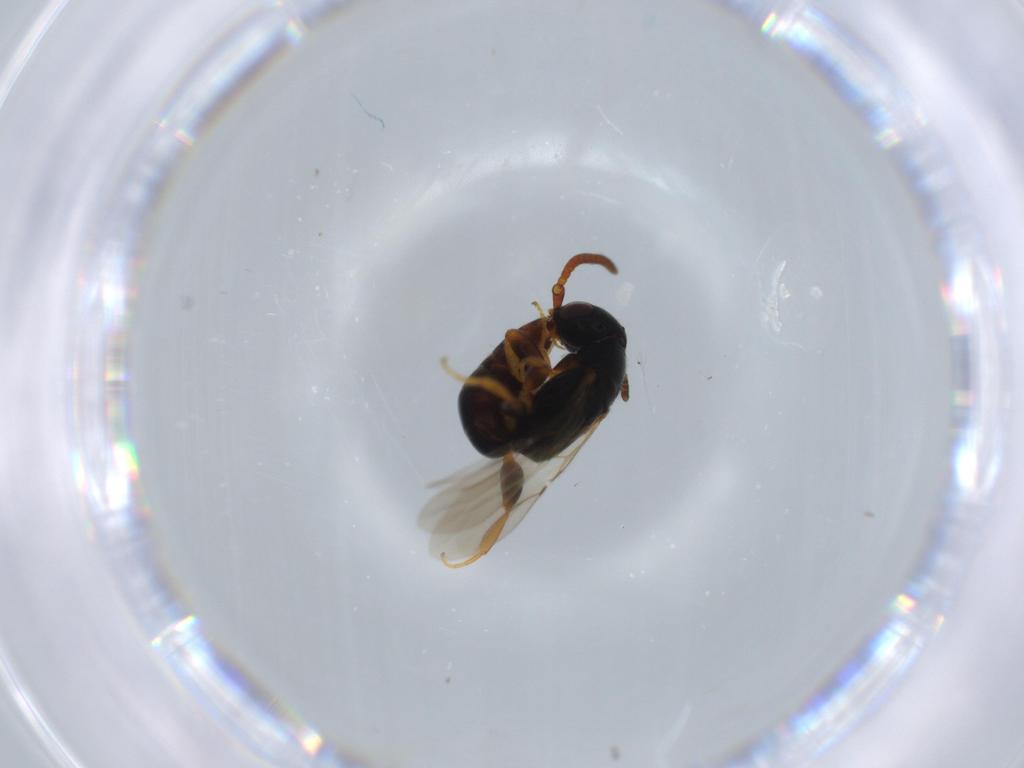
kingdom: Animalia
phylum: Arthropoda
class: Insecta
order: Hymenoptera
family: Bethylidae
